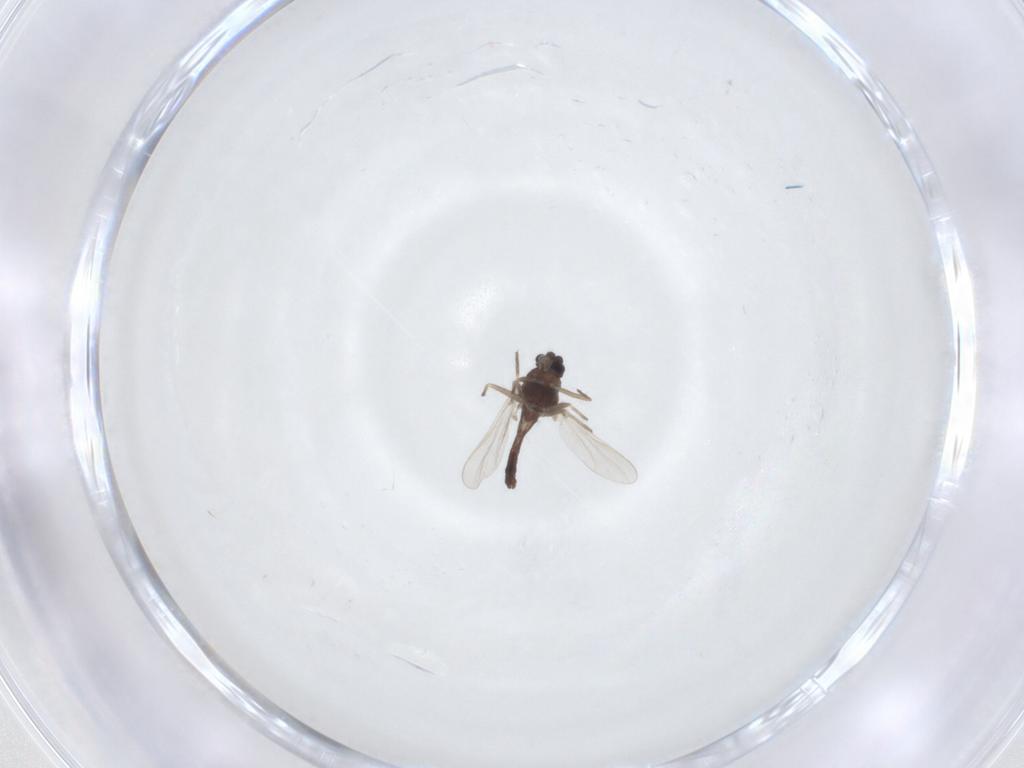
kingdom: Animalia
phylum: Arthropoda
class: Insecta
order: Diptera
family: Chironomidae
